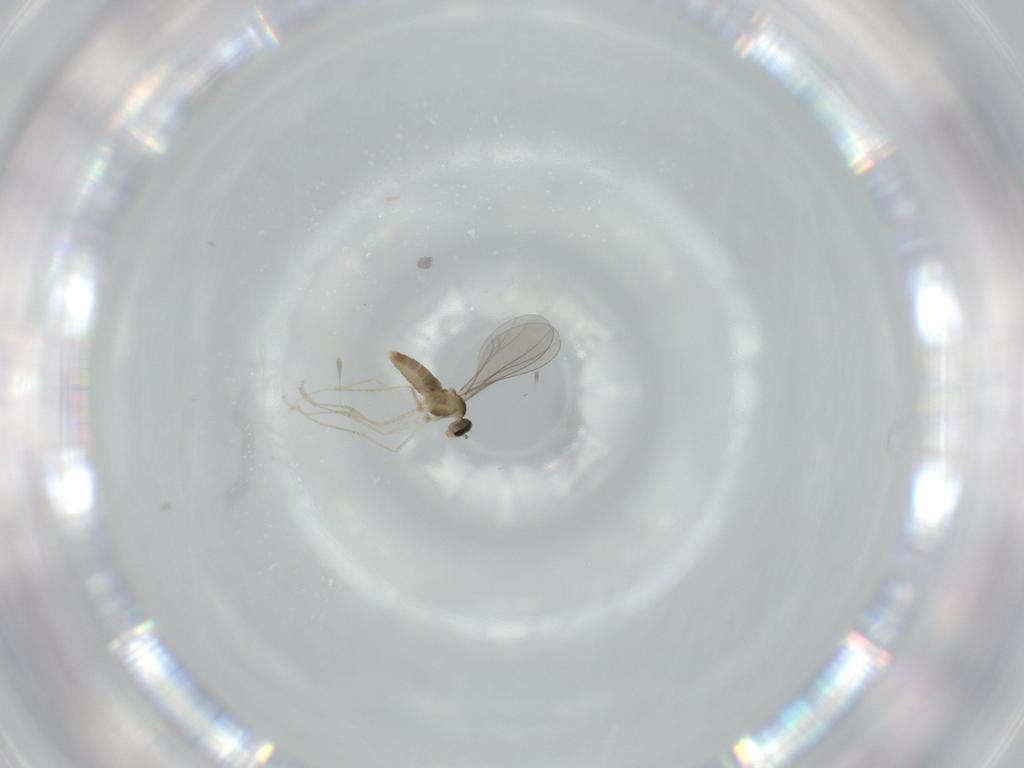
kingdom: Animalia
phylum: Arthropoda
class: Insecta
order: Diptera
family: Cecidomyiidae
